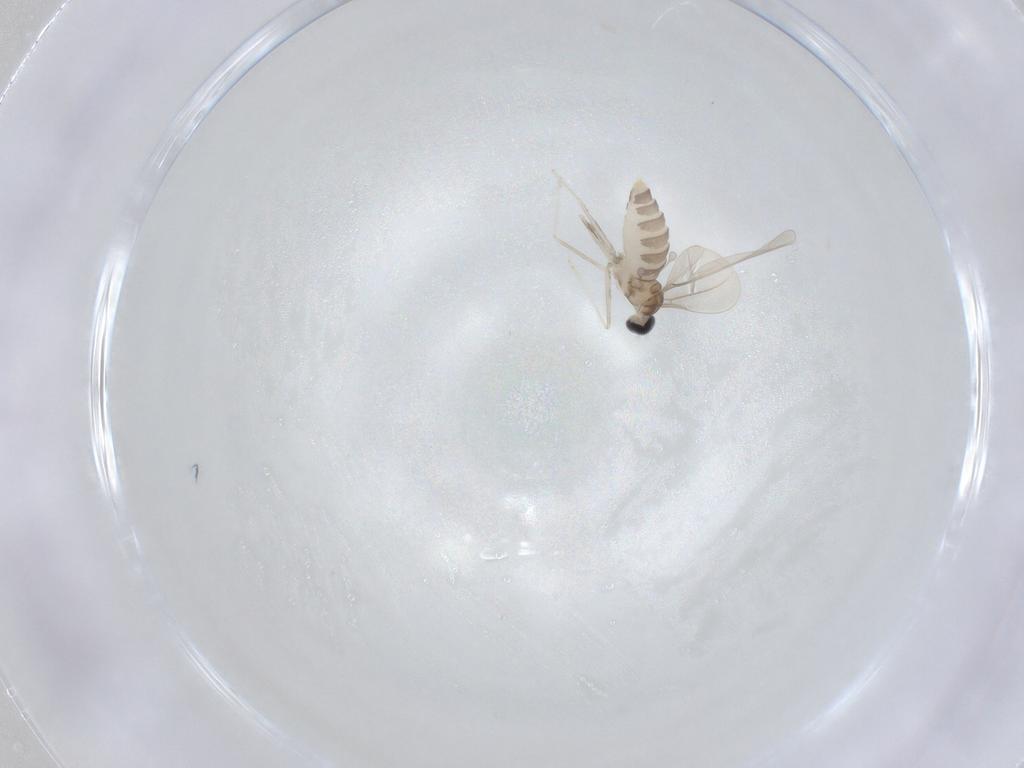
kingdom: Animalia
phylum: Arthropoda
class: Insecta
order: Diptera
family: Cecidomyiidae
